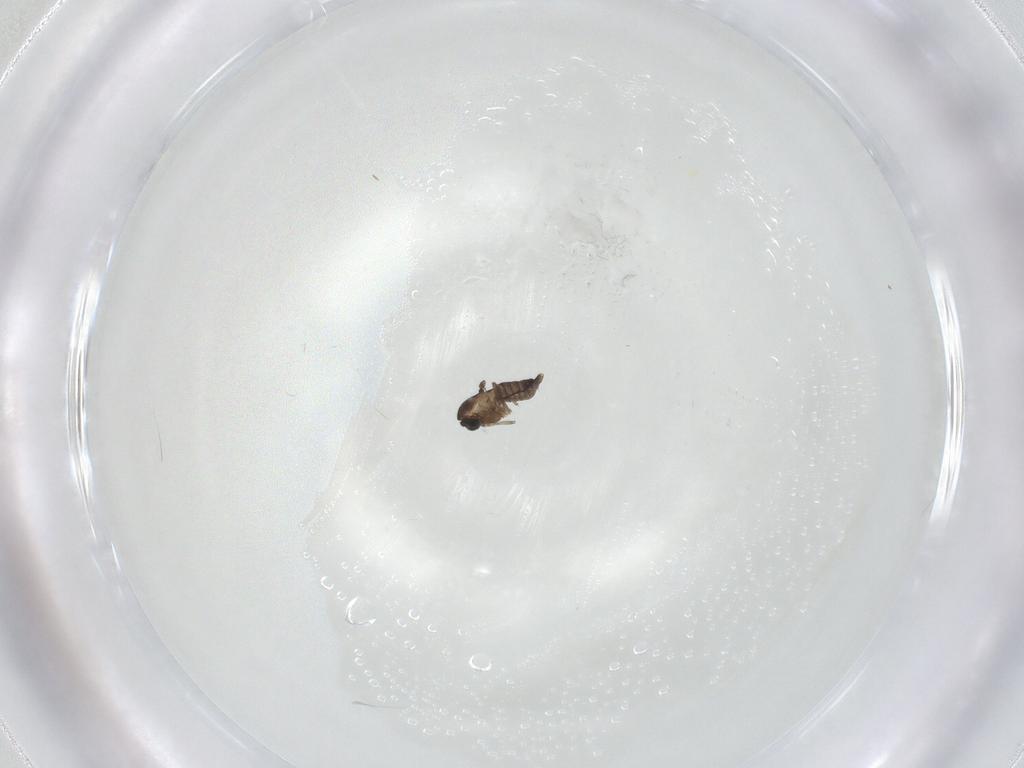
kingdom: Animalia
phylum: Arthropoda
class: Insecta
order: Diptera
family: Chironomidae
